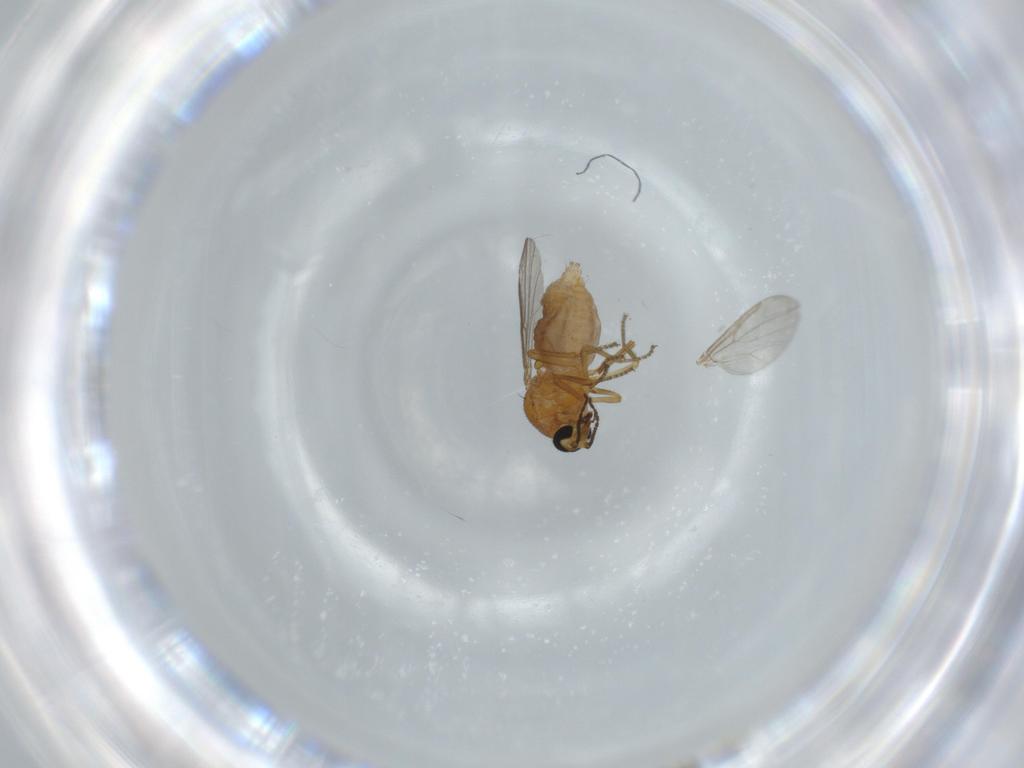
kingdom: Animalia
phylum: Arthropoda
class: Insecta
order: Diptera
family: Ceratopogonidae
